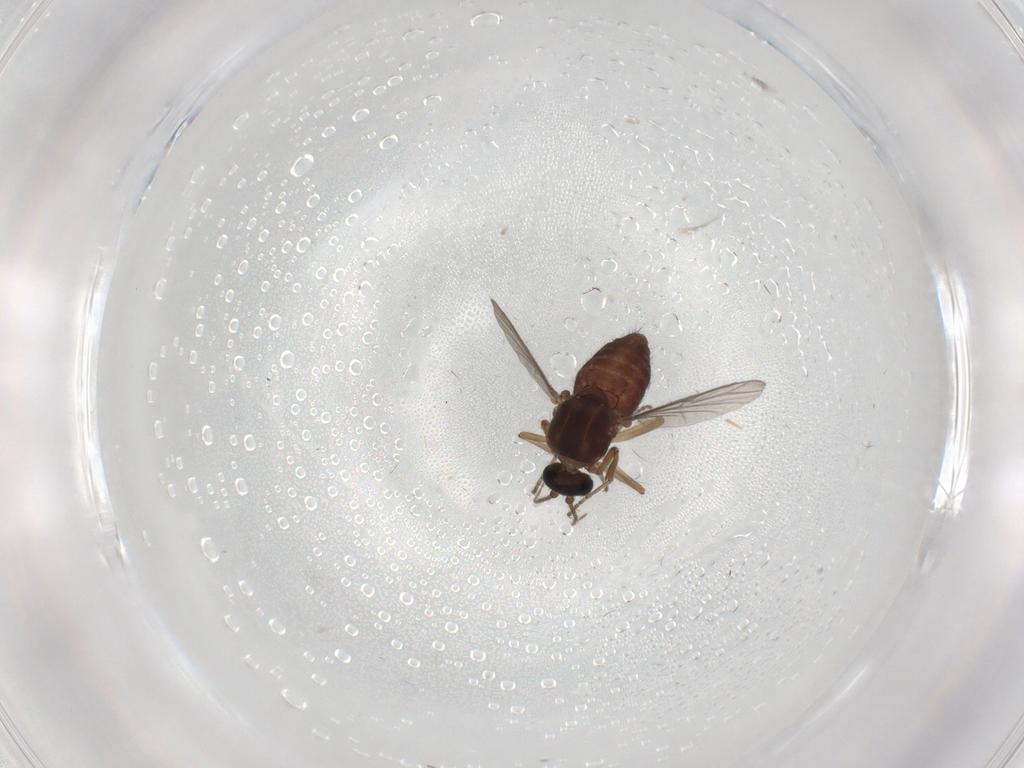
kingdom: Animalia
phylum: Arthropoda
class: Insecta
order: Diptera
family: Ceratopogonidae
